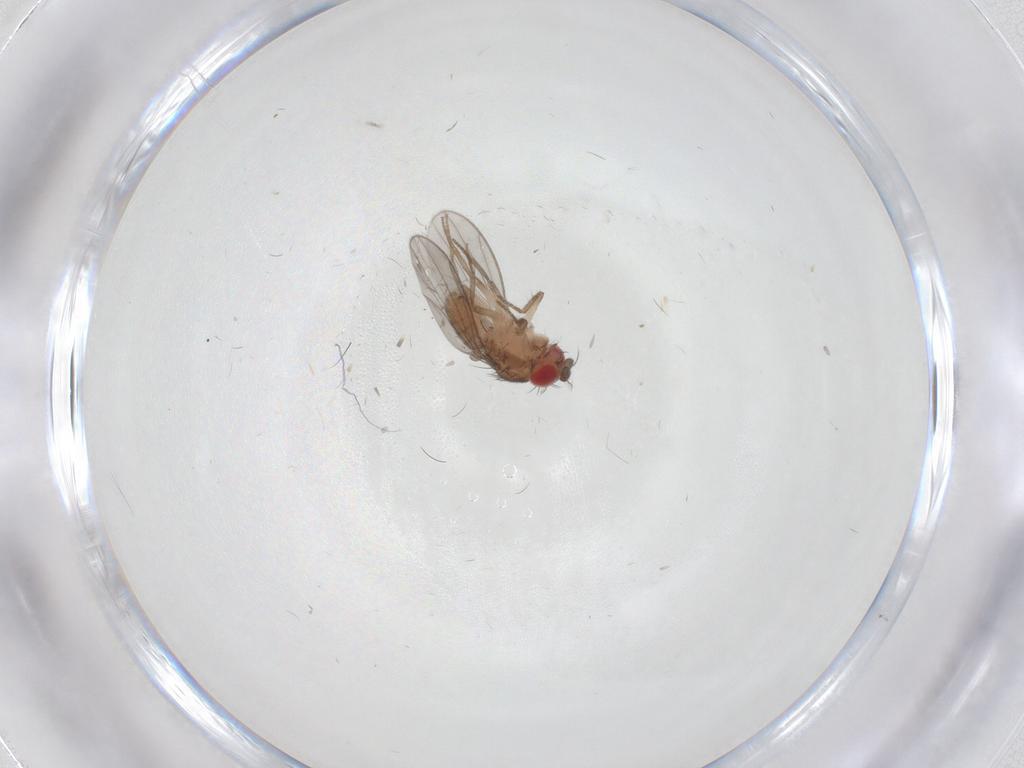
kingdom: Animalia
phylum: Arthropoda
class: Insecta
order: Diptera
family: Drosophilidae
